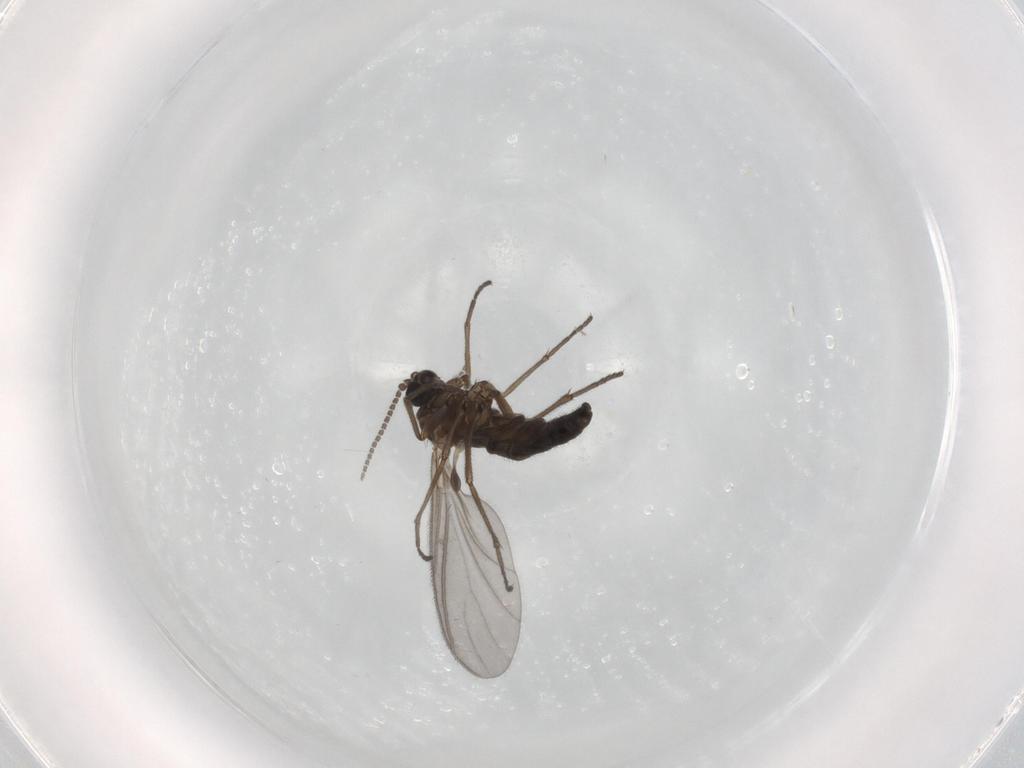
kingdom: Animalia
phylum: Arthropoda
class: Insecta
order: Diptera
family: Sciaridae
